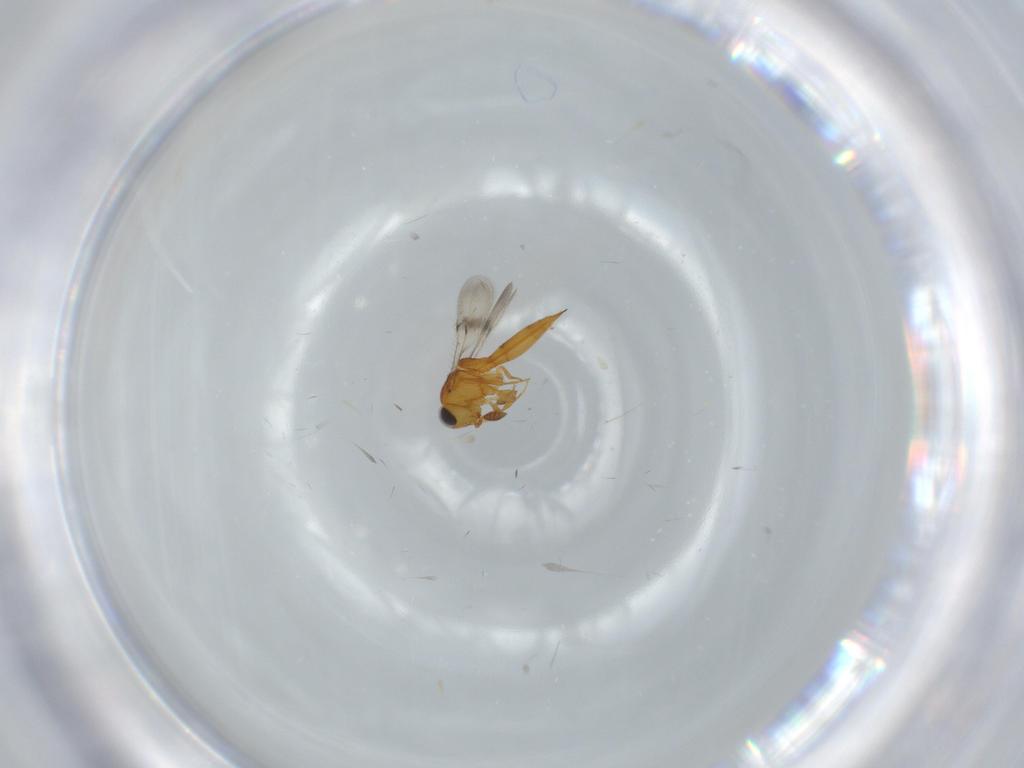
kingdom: Animalia
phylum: Arthropoda
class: Insecta
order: Hymenoptera
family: Scelionidae
